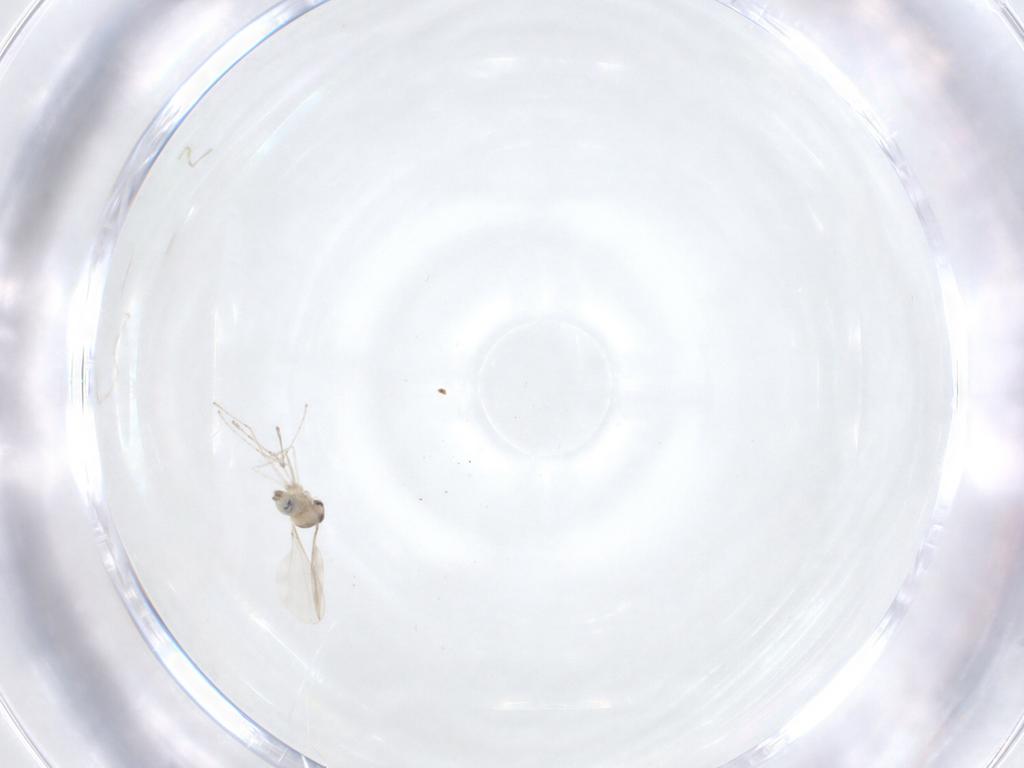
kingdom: Animalia
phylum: Arthropoda
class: Insecta
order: Diptera
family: Cecidomyiidae
